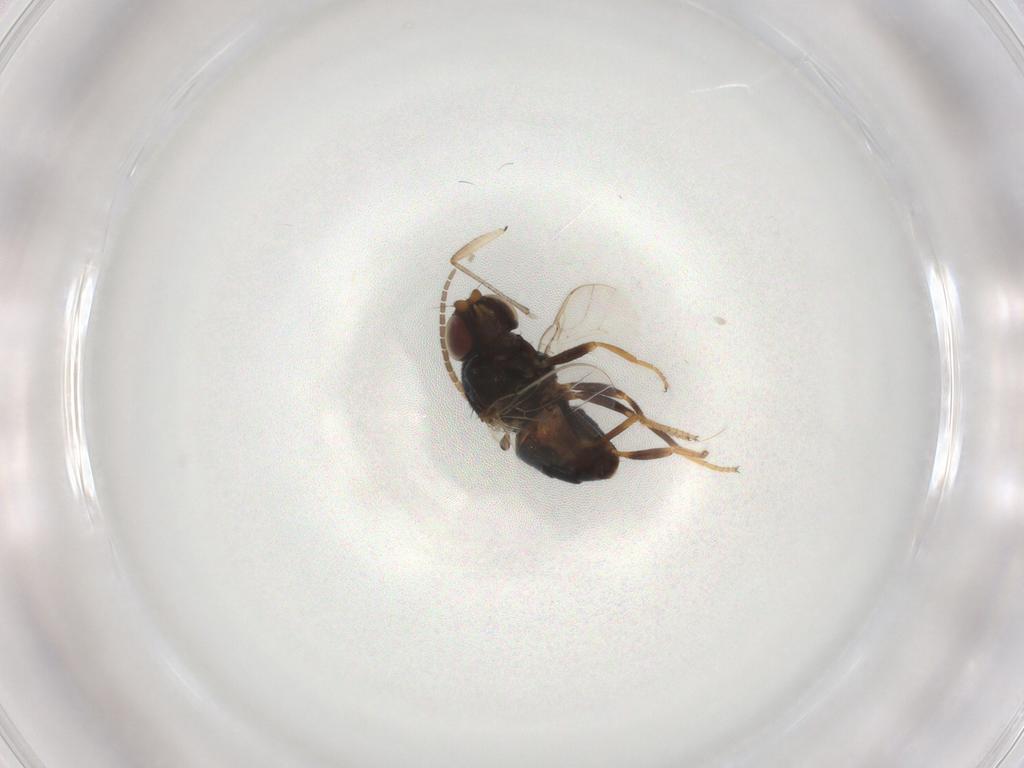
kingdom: Animalia
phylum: Arthropoda
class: Insecta
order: Diptera
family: Chloropidae
